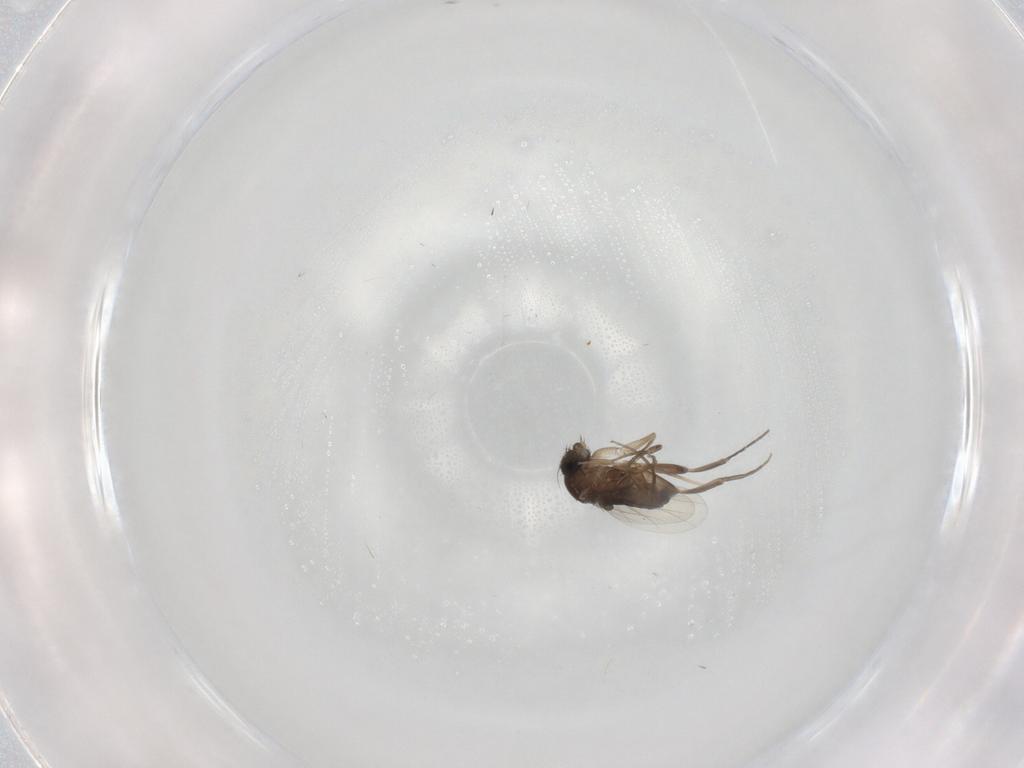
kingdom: Animalia
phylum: Arthropoda
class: Insecta
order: Diptera
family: Phoridae
